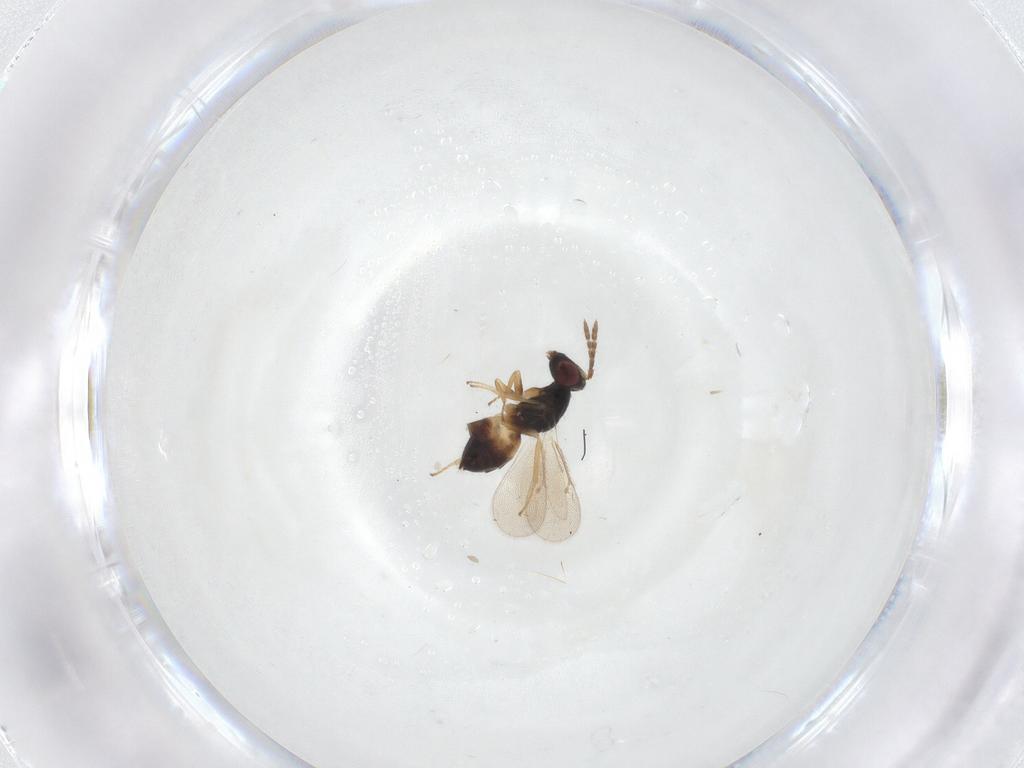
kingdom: Animalia
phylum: Arthropoda
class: Insecta
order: Hymenoptera
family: Eulophidae
